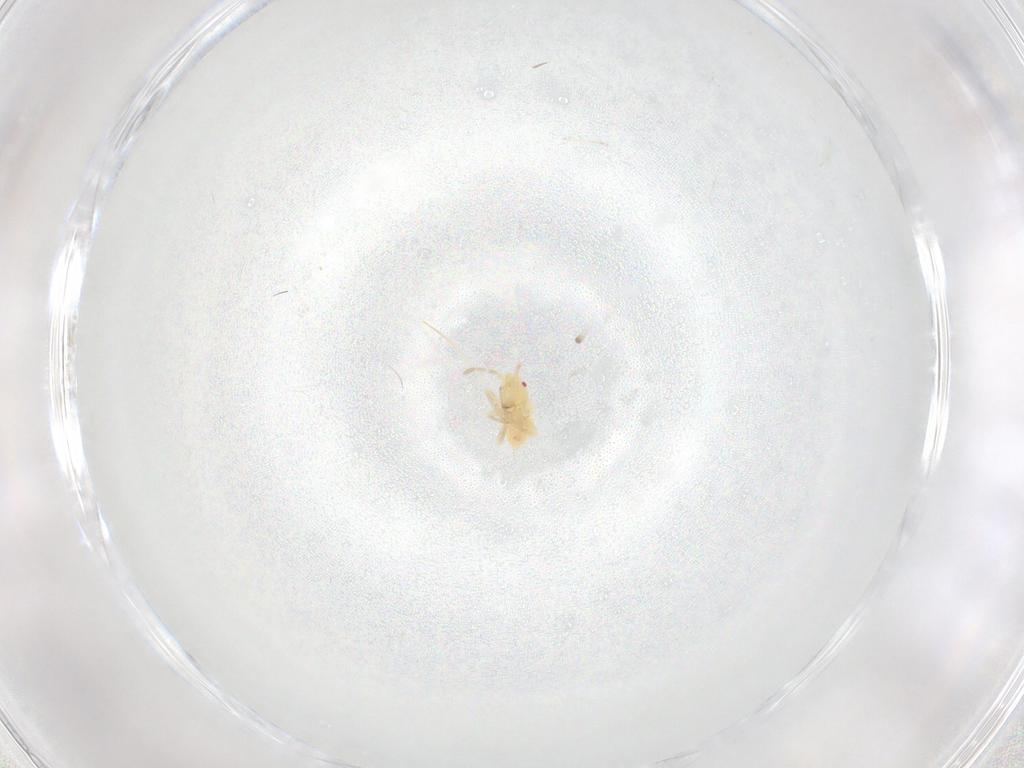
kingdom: Animalia
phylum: Arthropoda
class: Insecta
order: Hemiptera
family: Miridae
